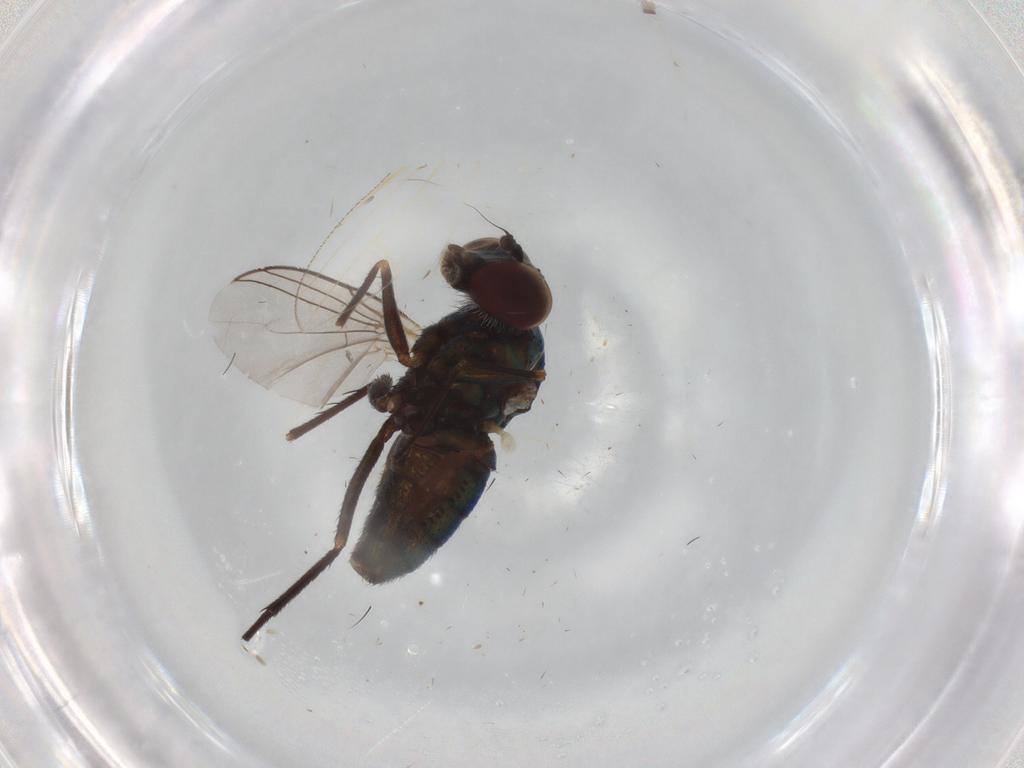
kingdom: Animalia
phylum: Arthropoda
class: Insecta
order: Diptera
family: Dolichopodidae
